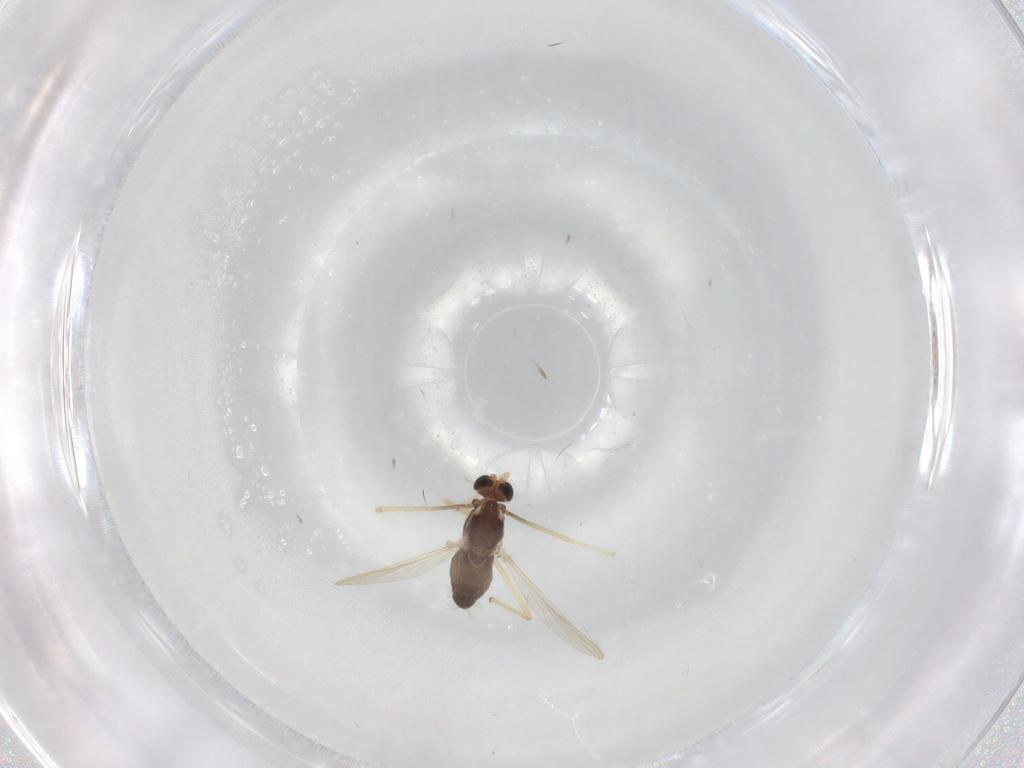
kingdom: Animalia
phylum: Arthropoda
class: Insecta
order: Diptera
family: Chironomidae
